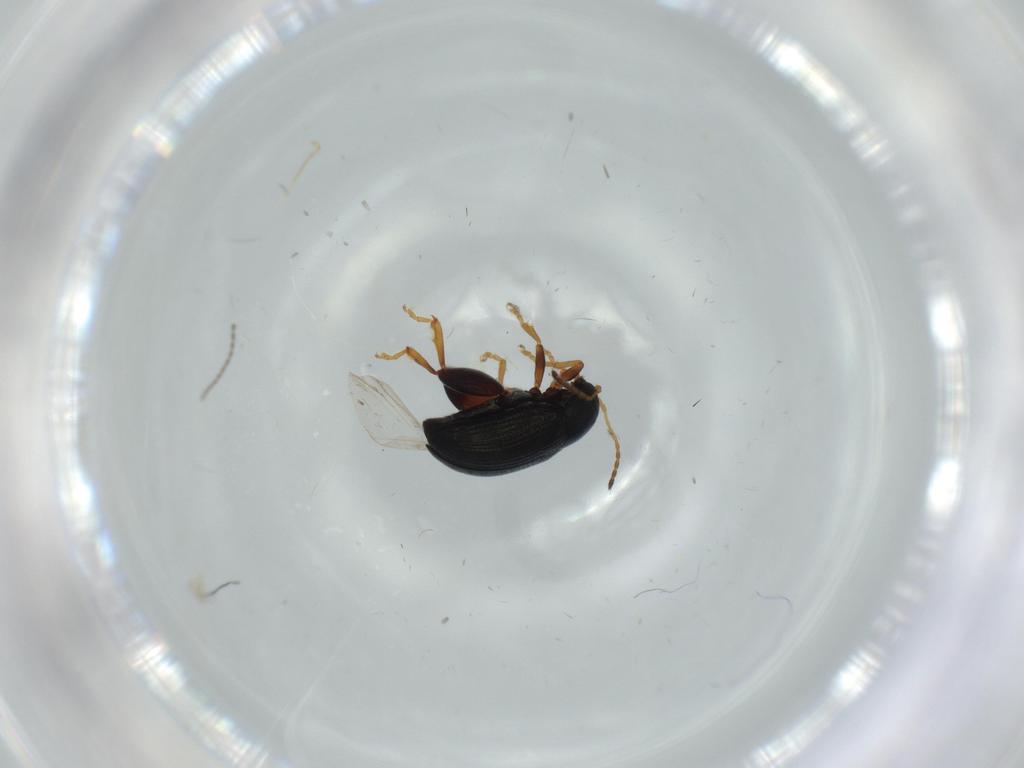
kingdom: Animalia
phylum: Arthropoda
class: Insecta
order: Coleoptera
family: Chrysomelidae
